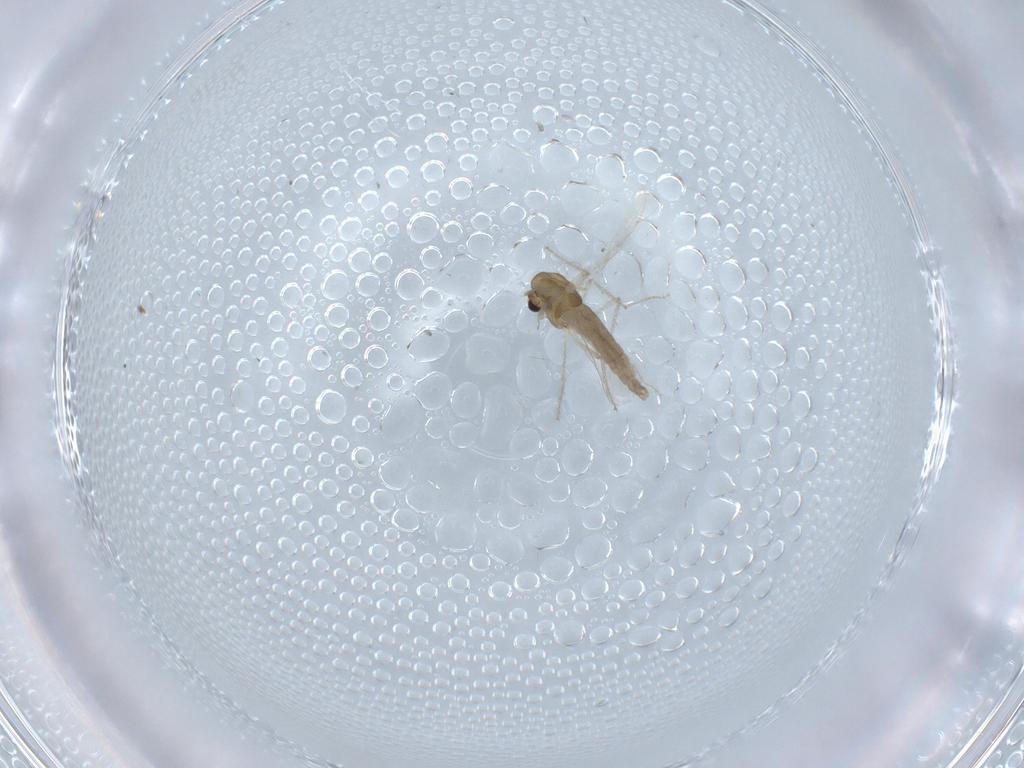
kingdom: Animalia
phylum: Arthropoda
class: Insecta
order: Diptera
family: Chironomidae
